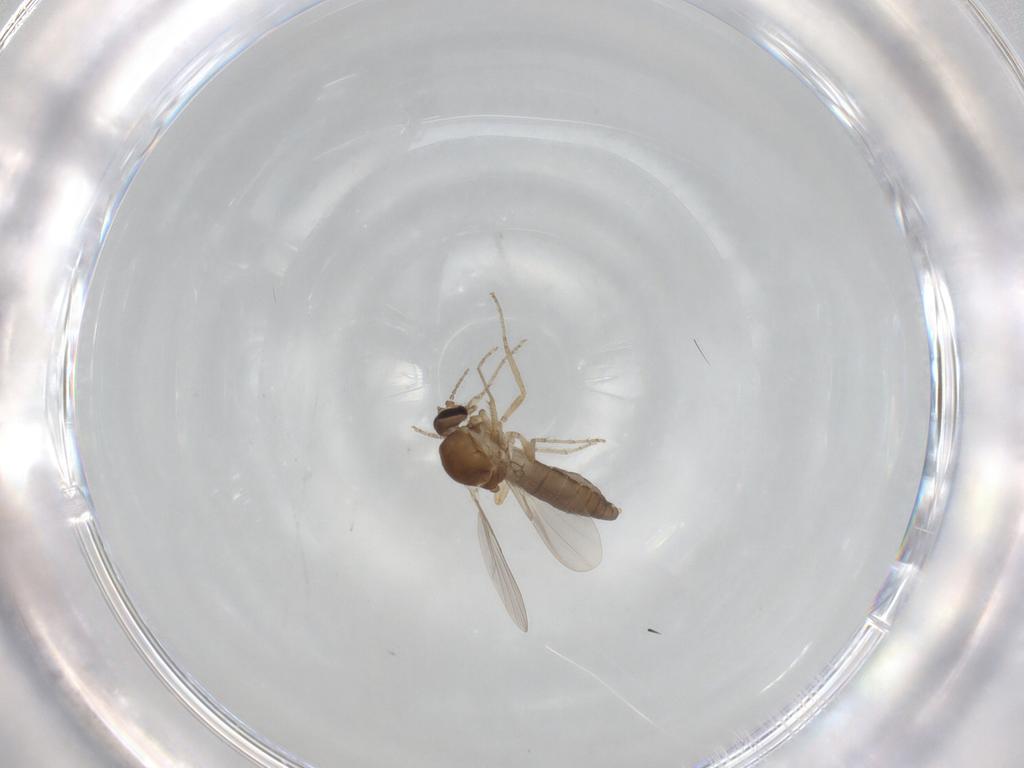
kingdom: Animalia
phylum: Arthropoda
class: Insecta
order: Diptera
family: Ceratopogonidae
